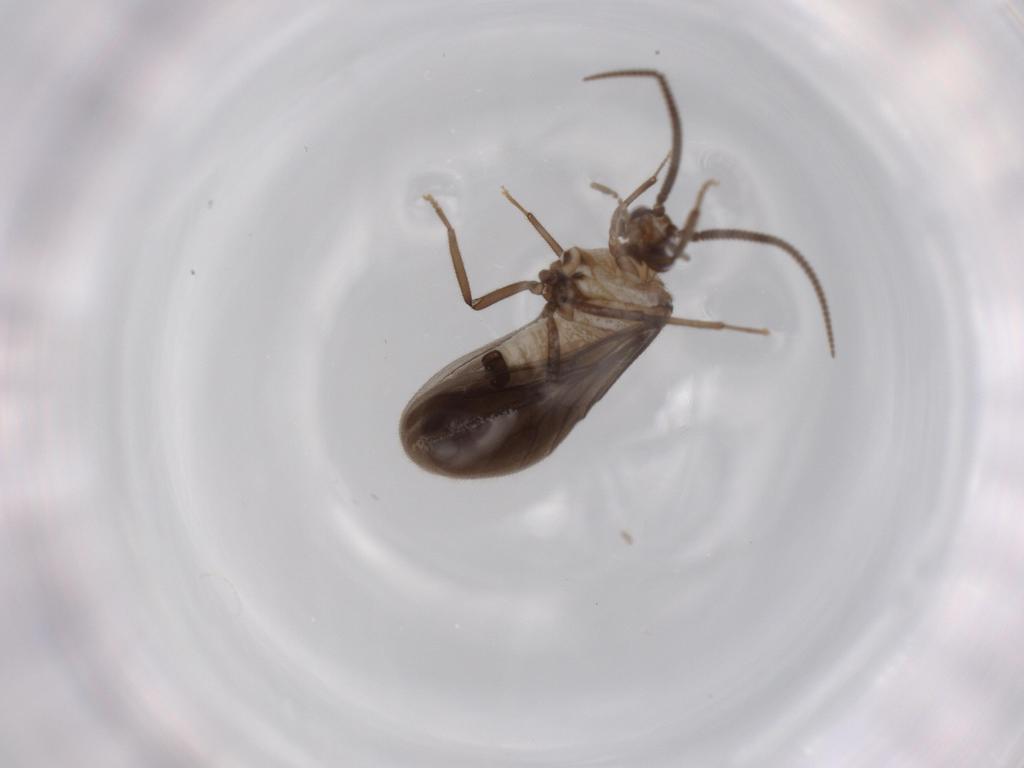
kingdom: Animalia
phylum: Arthropoda
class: Insecta
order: Neuroptera
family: Coniopterygidae
